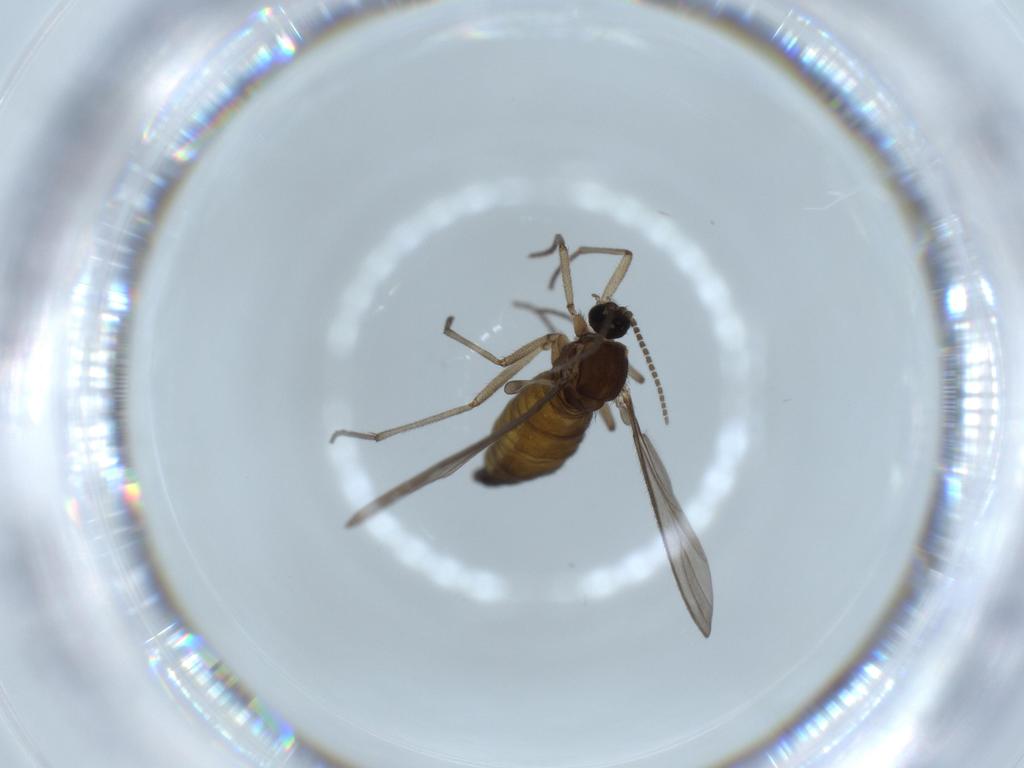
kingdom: Animalia
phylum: Arthropoda
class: Insecta
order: Diptera
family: Sciaridae
